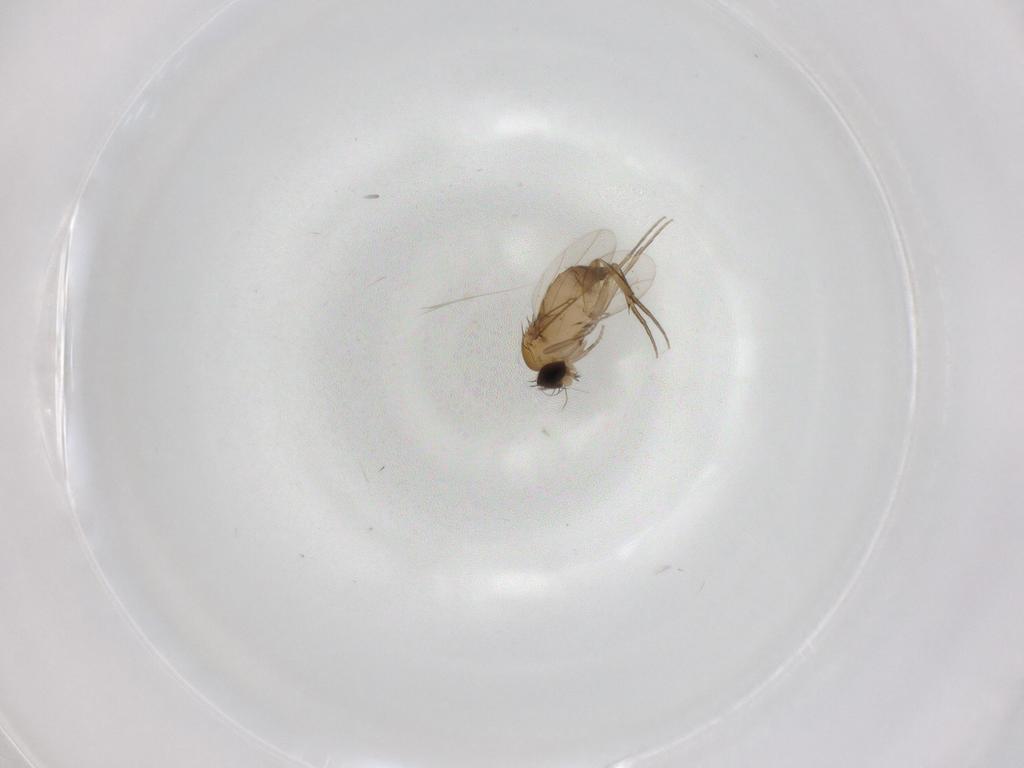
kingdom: Animalia
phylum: Arthropoda
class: Insecta
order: Diptera
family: Phoridae
